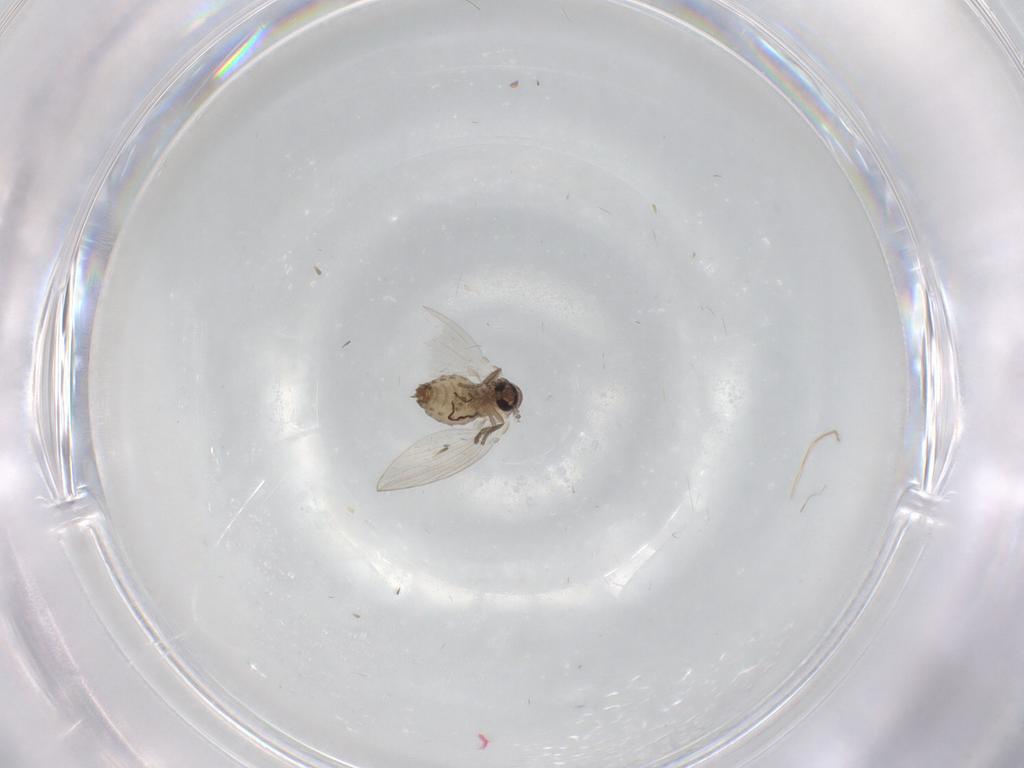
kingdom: Animalia
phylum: Arthropoda
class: Insecta
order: Diptera
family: Psychodidae
